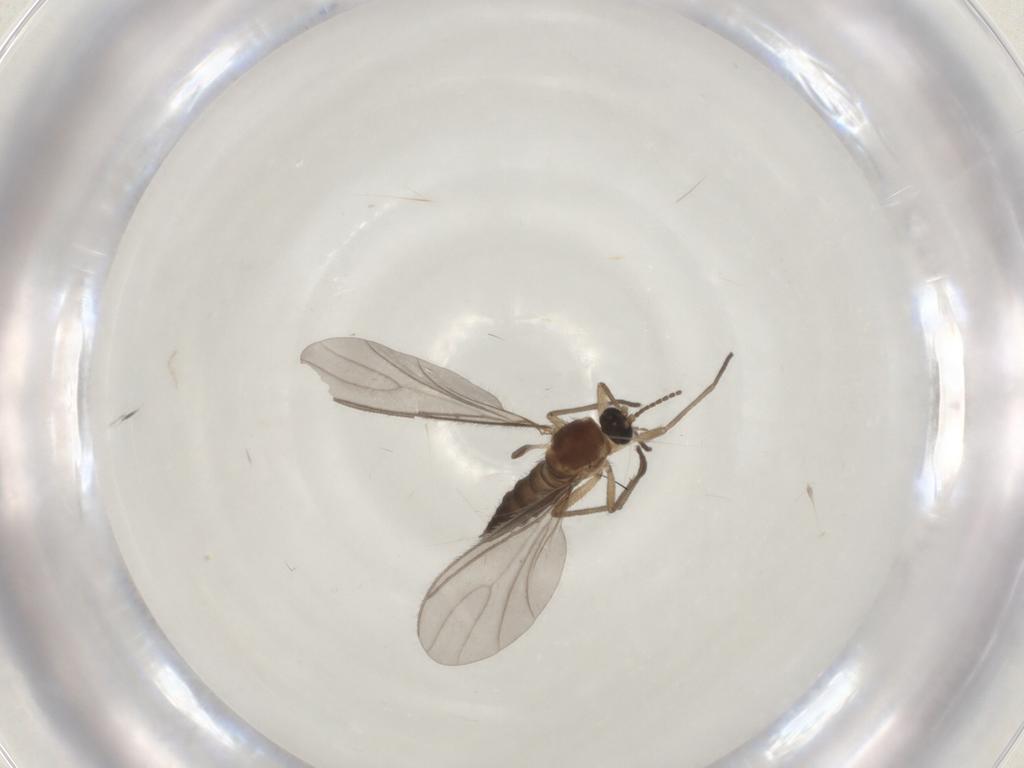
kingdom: Animalia
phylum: Arthropoda
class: Insecta
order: Diptera
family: Sciaridae
